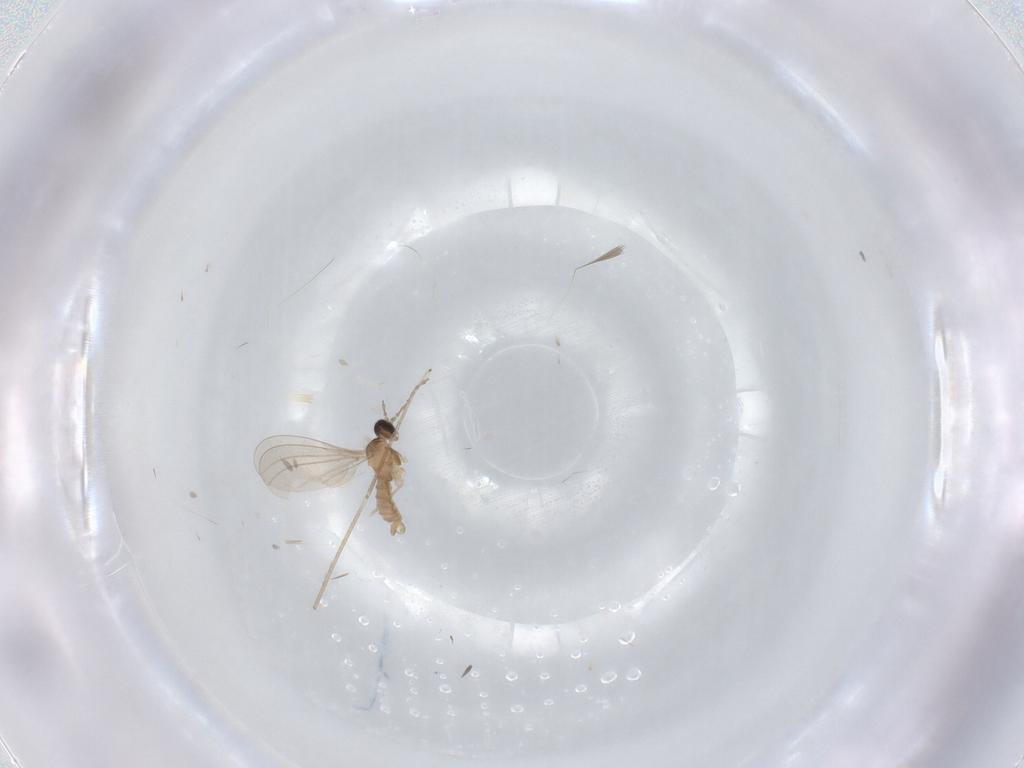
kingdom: Animalia
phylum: Arthropoda
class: Insecta
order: Diptera
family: Cecidomyiidae
